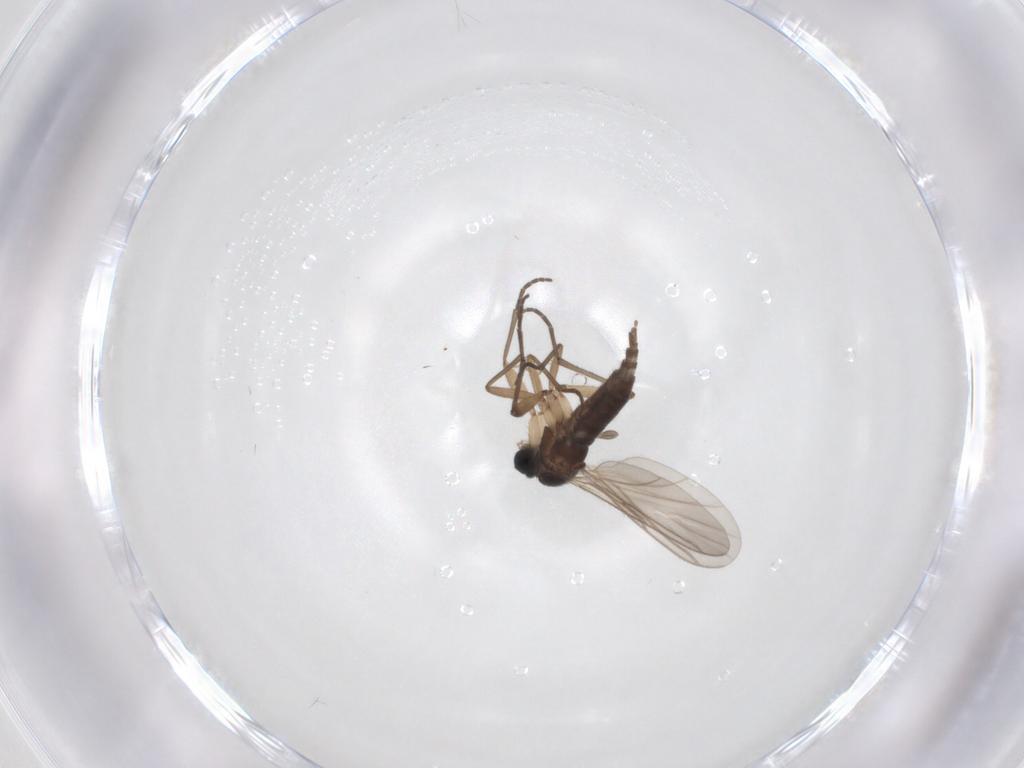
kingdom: Animalia
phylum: Arthropoda
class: Insecta
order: Diptera
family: Sciaridae
